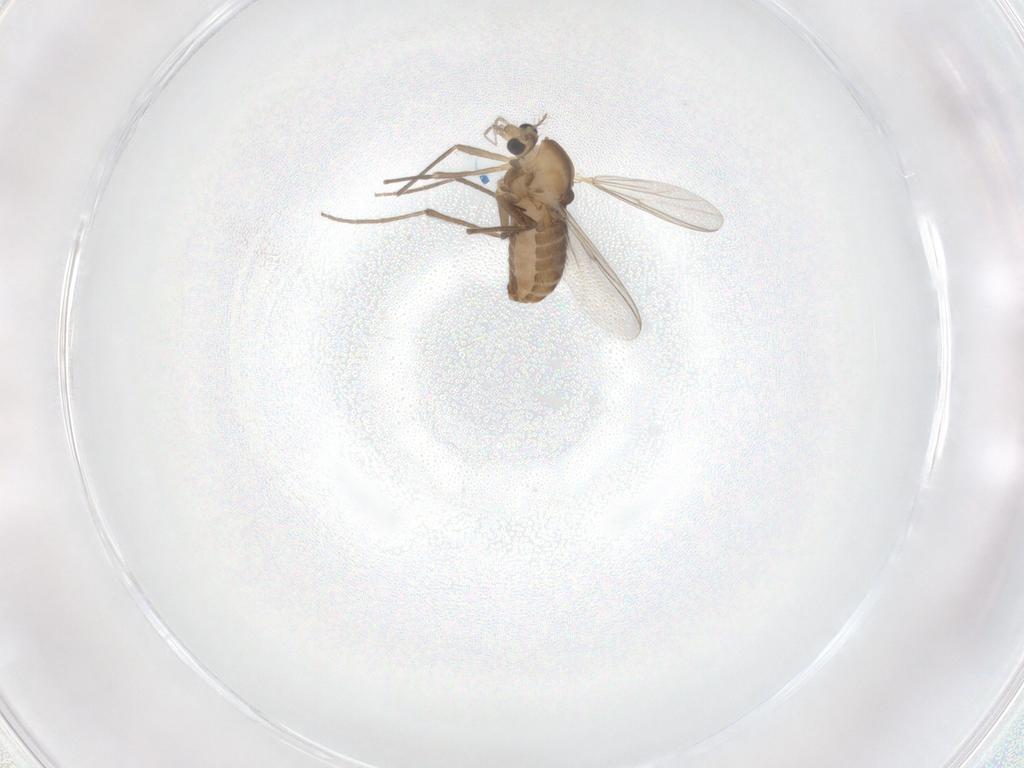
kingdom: Animalia
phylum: Arthropoda
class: Insecta
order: Diptera
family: Chironomidae
